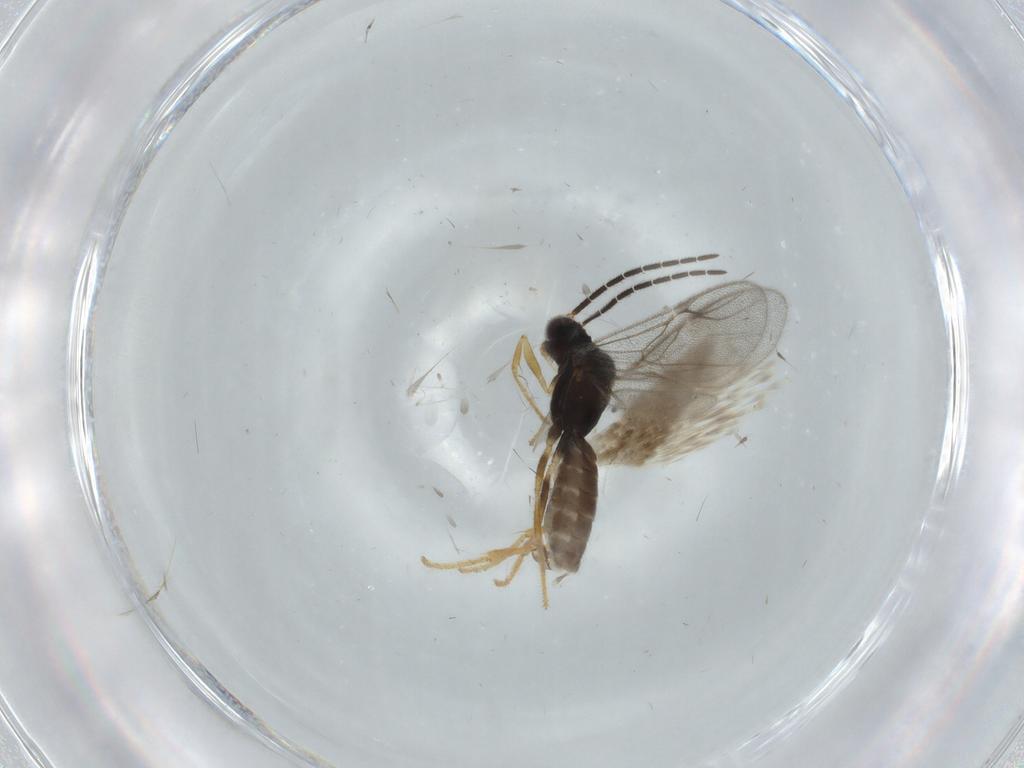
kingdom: Animalia
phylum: Arthropoda
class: Insecta
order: Hymenoptera
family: Dryinidae
